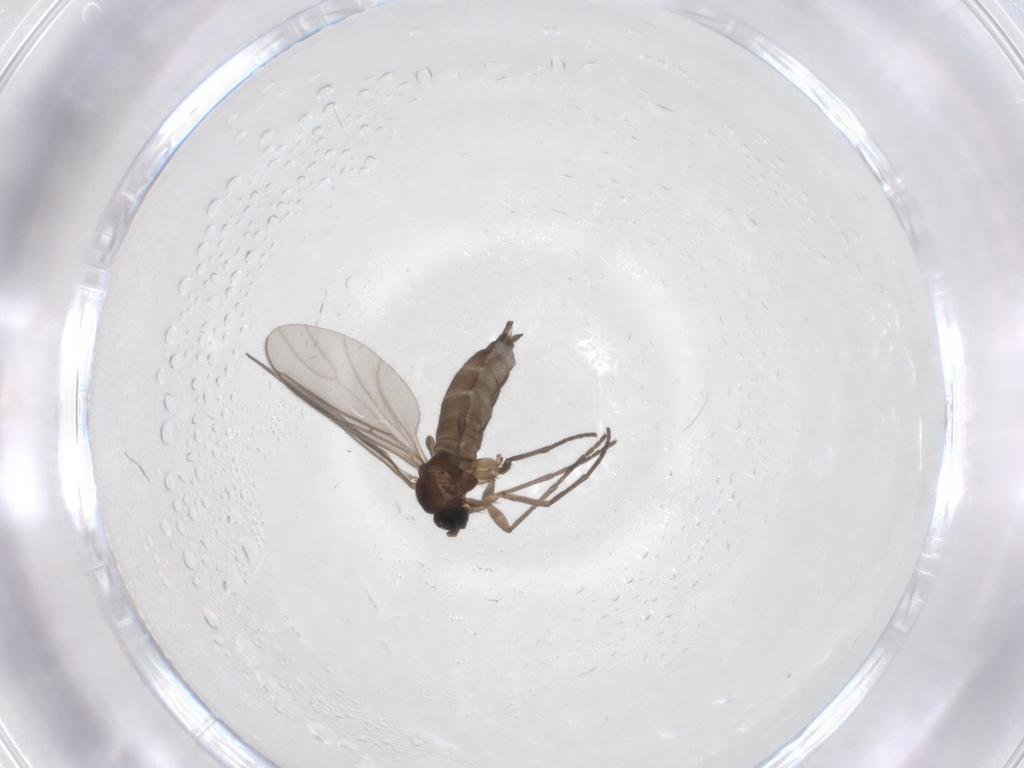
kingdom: Animalia
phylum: Arthropoda
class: Insecta
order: Diptera
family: Sciaridae
